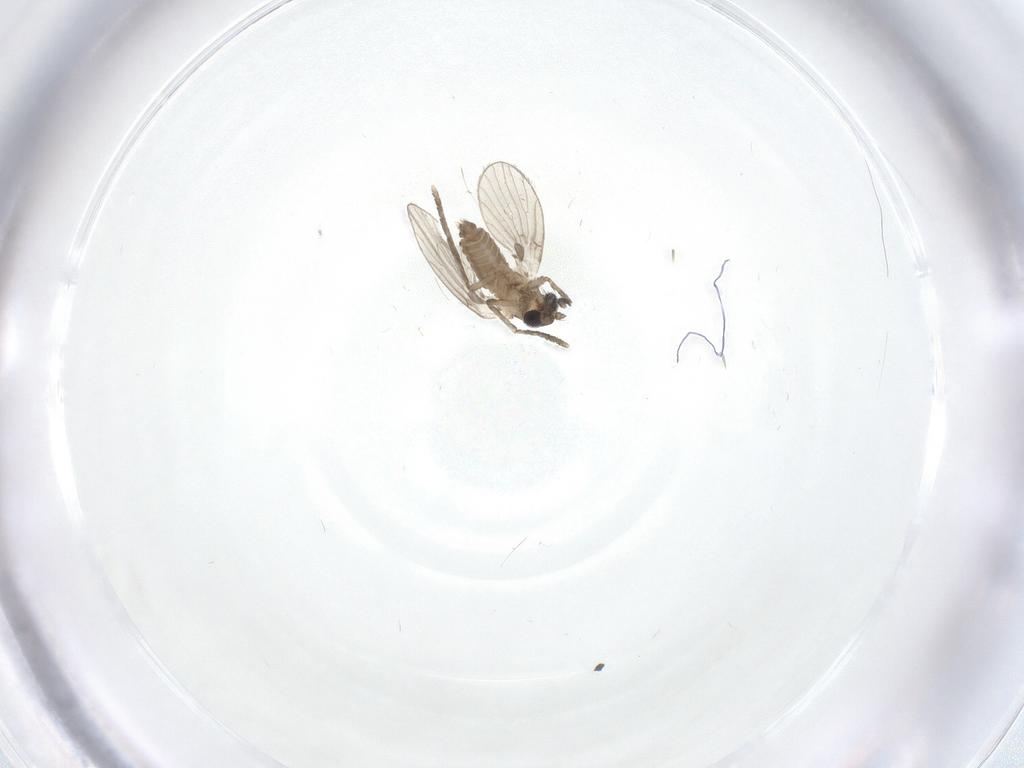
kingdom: Animalia
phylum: Arthropoda
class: Insecta
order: Diptera
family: Psychodidae
